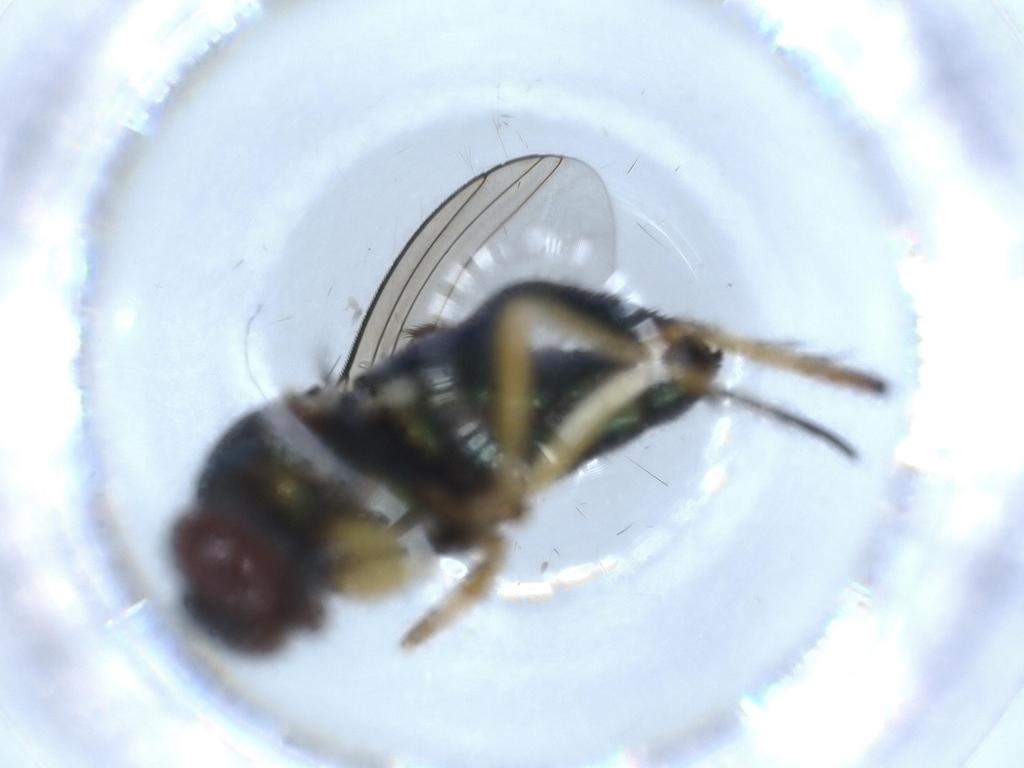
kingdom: Animalia
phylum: Arthropoda
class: Insecta
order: Diptera
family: Dolichopodidae
